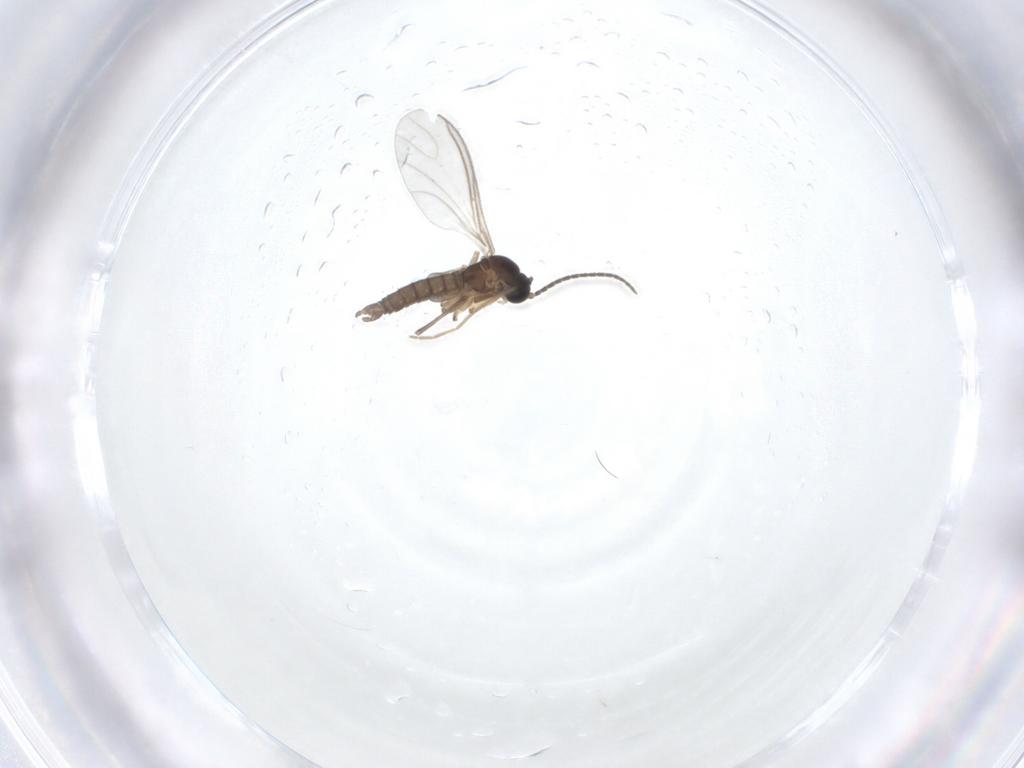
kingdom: Animalia
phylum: Arthropoda
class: Insecta
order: Diptera
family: Sciaridae
